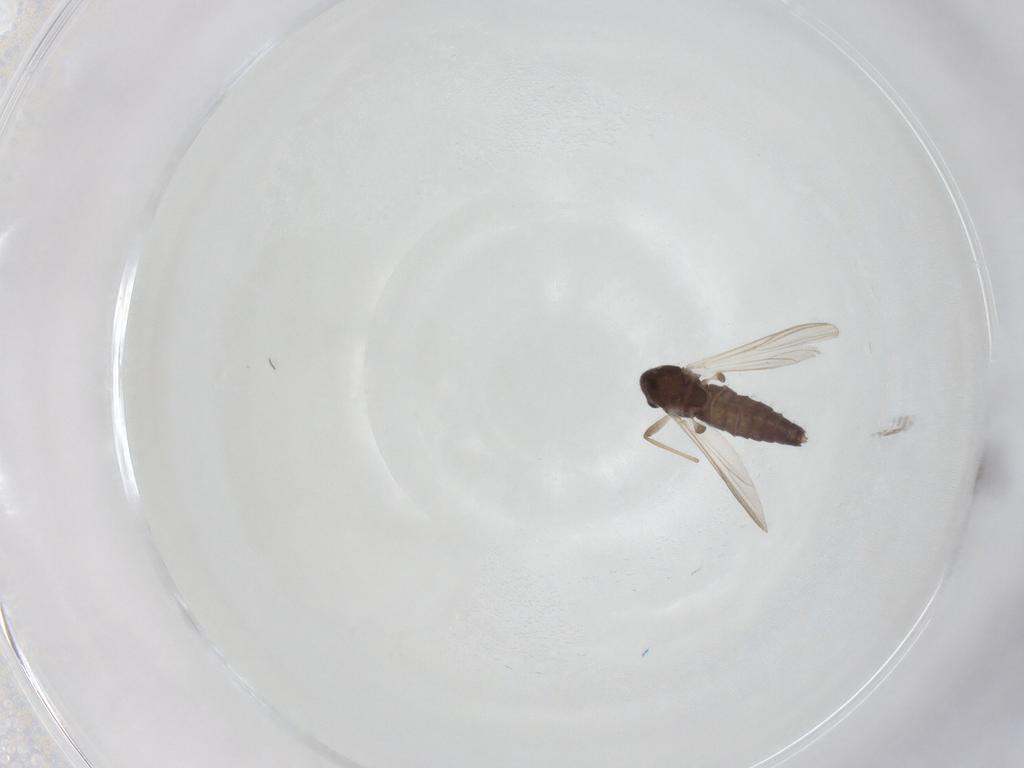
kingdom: Animalia
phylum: Arthropoda
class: Insecta
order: Diptera
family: Chironomidae
